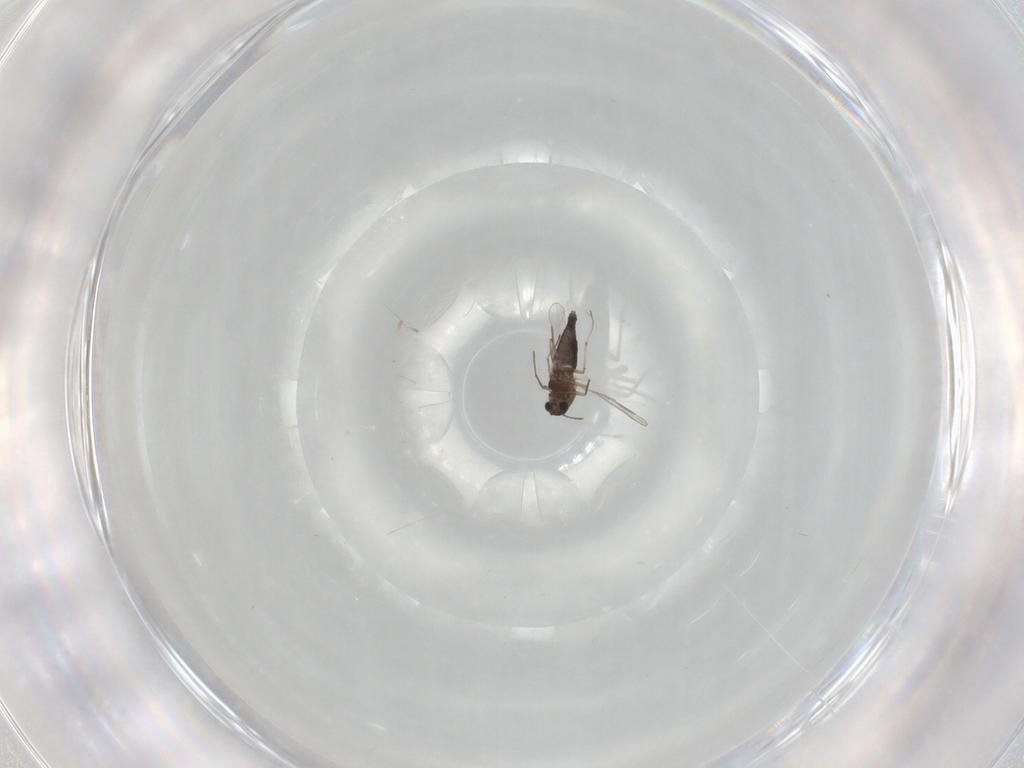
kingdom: Animalia
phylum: Arthropoda
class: Insecta
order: Diptera
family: Chironomidae
